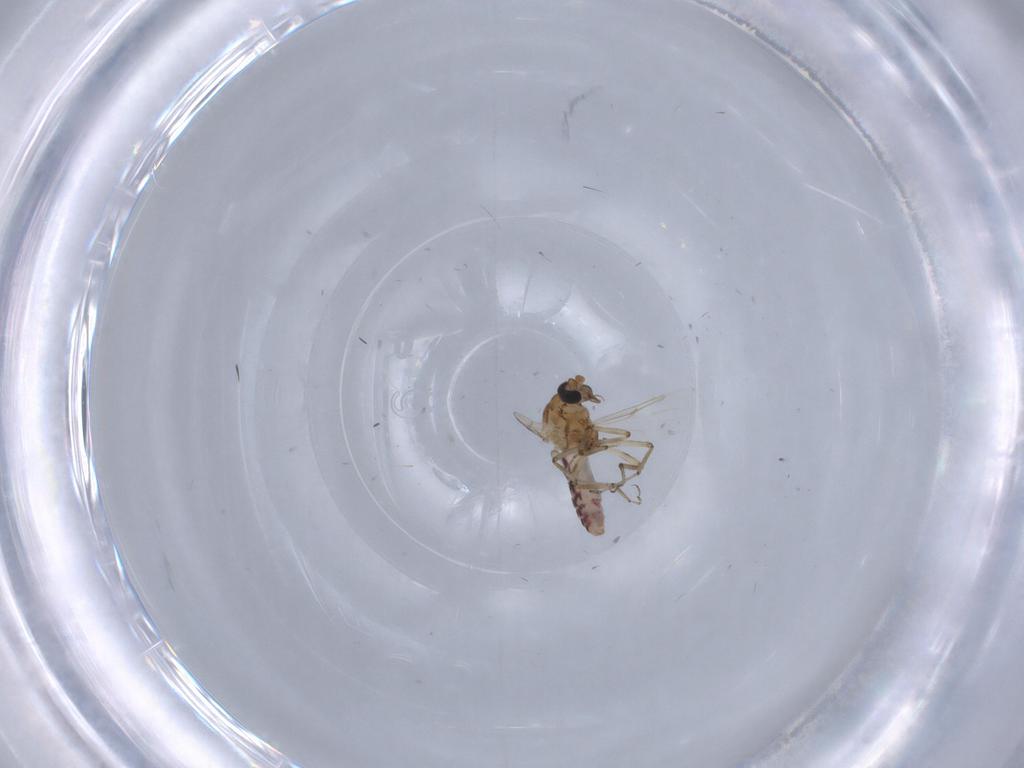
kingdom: Animalia
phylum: Arthropoda
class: Insecta
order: Diptera
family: Ceratopogonidae
